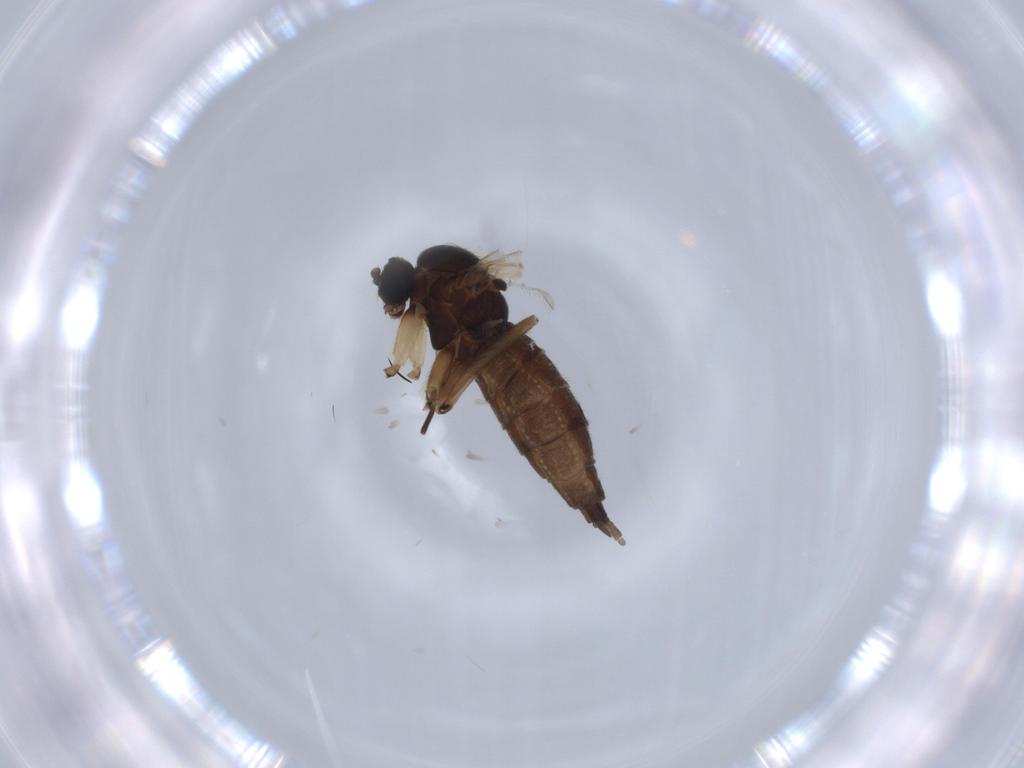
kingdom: Animalia
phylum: Arthropoda
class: Insecta
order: Diptera
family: Sciaridae
